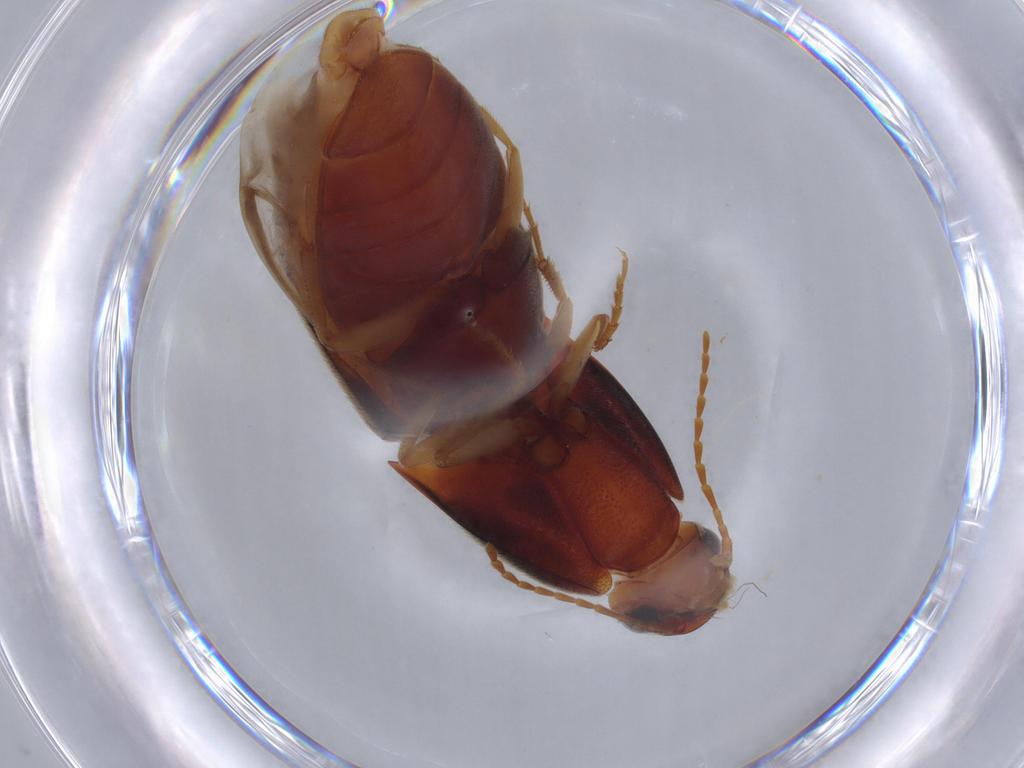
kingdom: Animalia
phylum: Arthropoda
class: Insecta
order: Coleoptera
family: Elateridae
